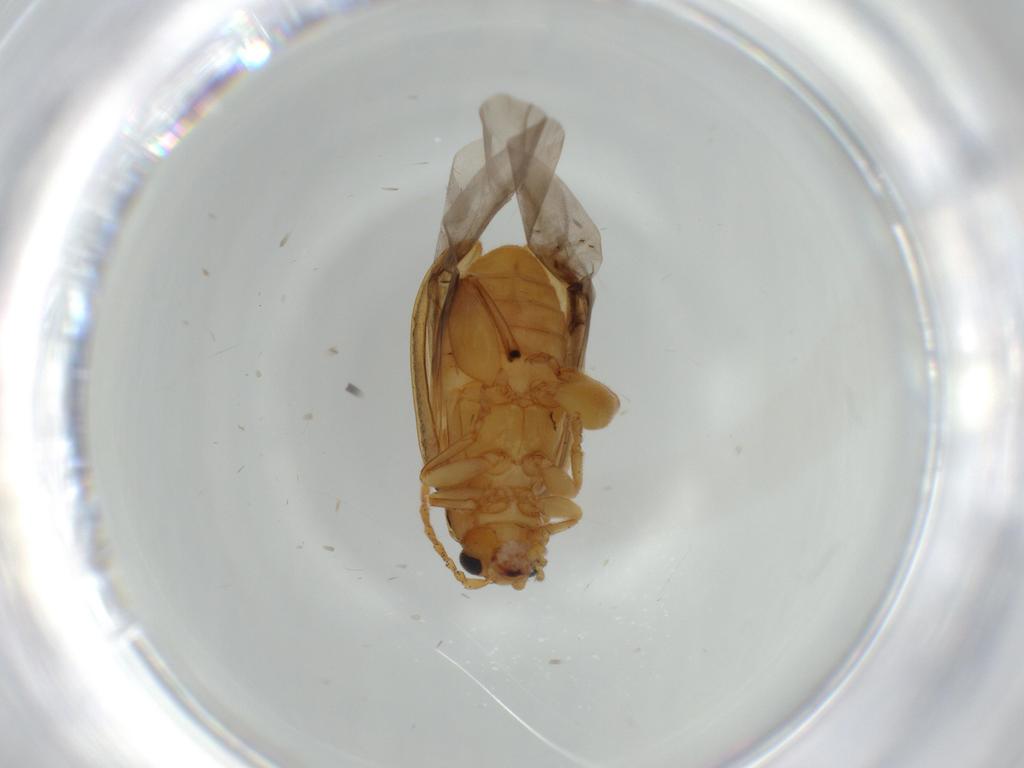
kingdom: Animalia
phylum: Arthropoda
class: Insecta
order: Coleoptera
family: Chrysomelidae
